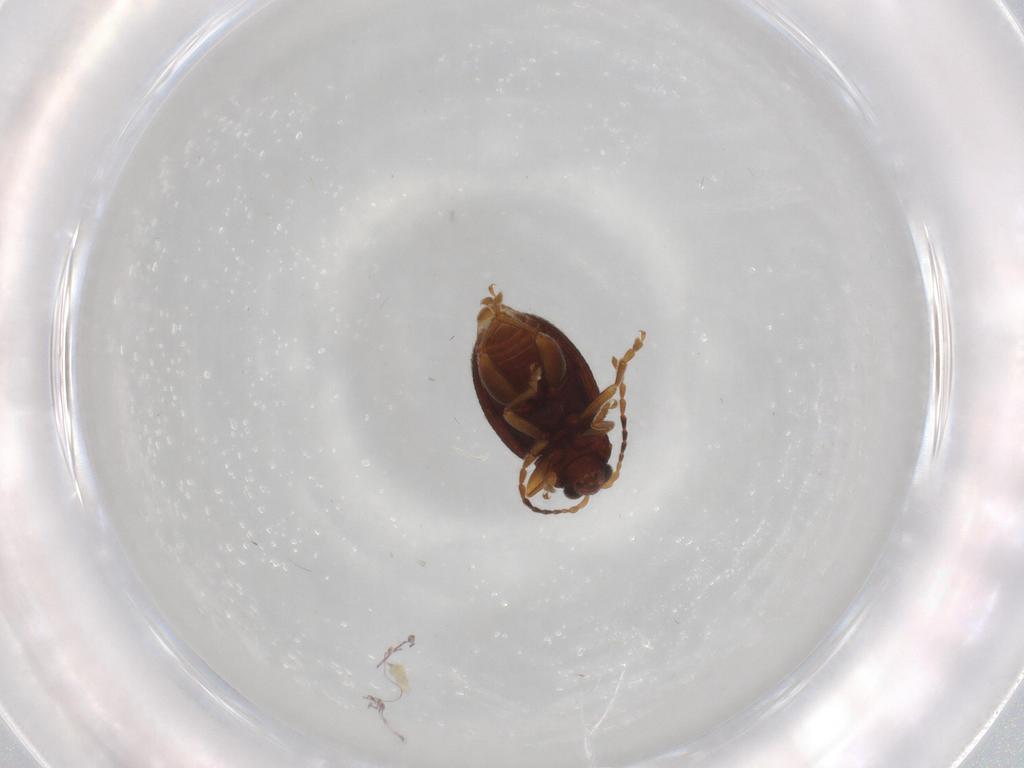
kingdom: Animalia
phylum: Arthropoda
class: Insecta
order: Coleoptera
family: Chrysomelidae
